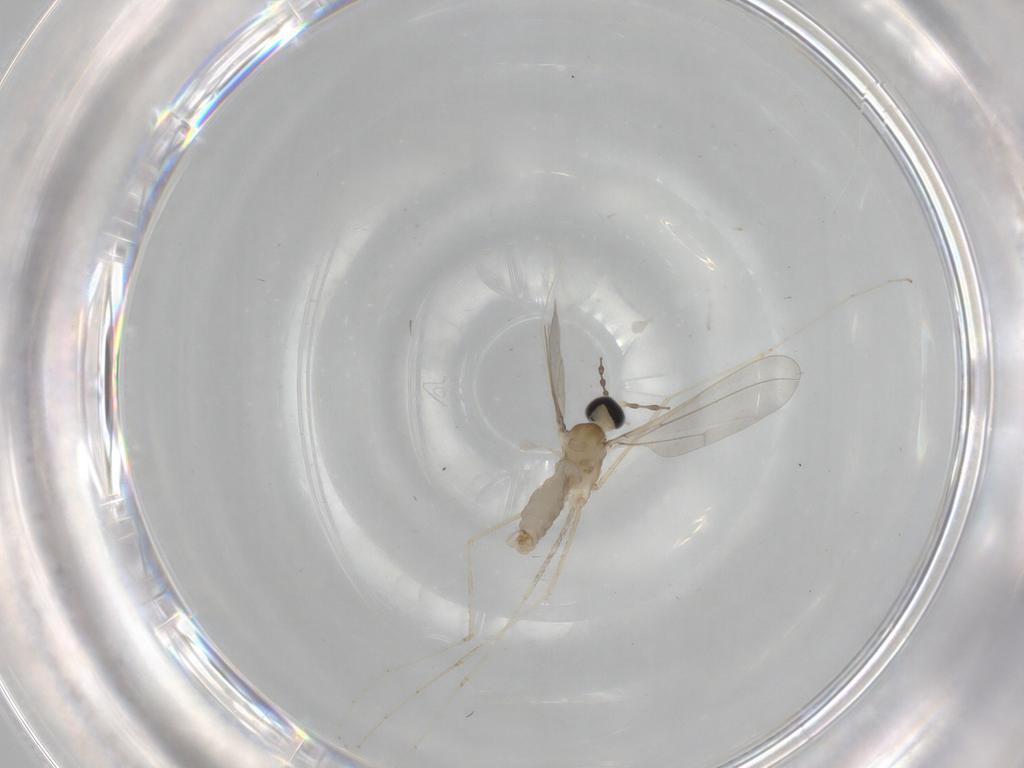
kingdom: Animalia
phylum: Arthropoda
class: Insecta
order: Diptera
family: Cecidomyiidae
